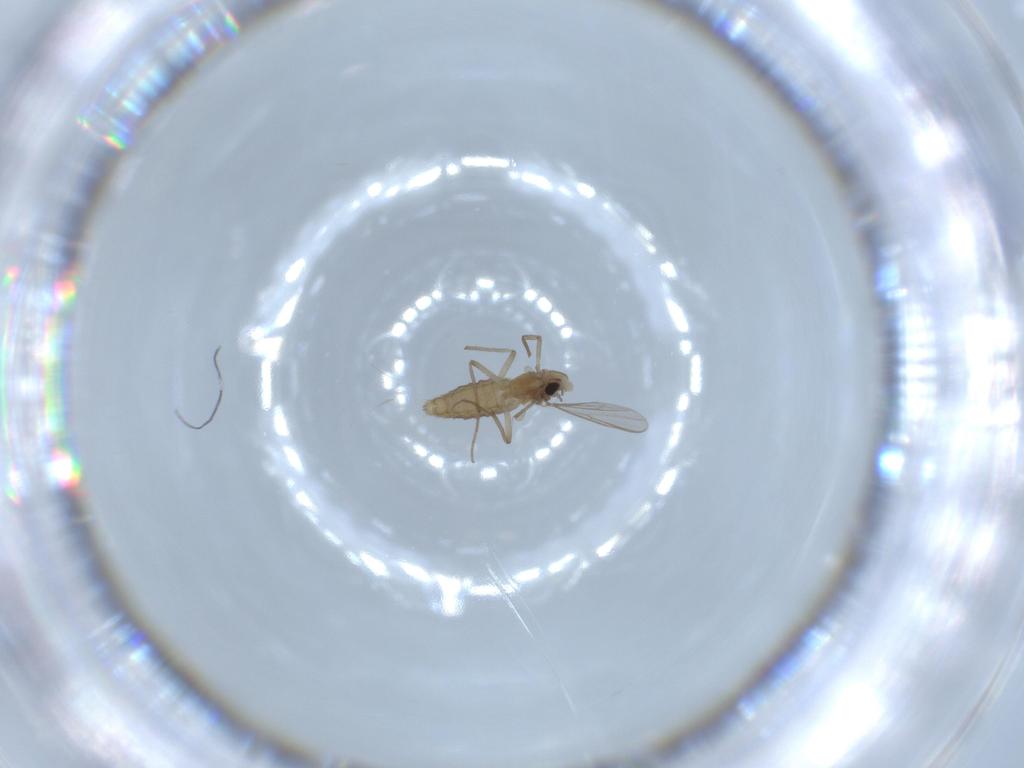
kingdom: Animalia
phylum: Arthropoda
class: Insecta
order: Diptera
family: Chironomidae
